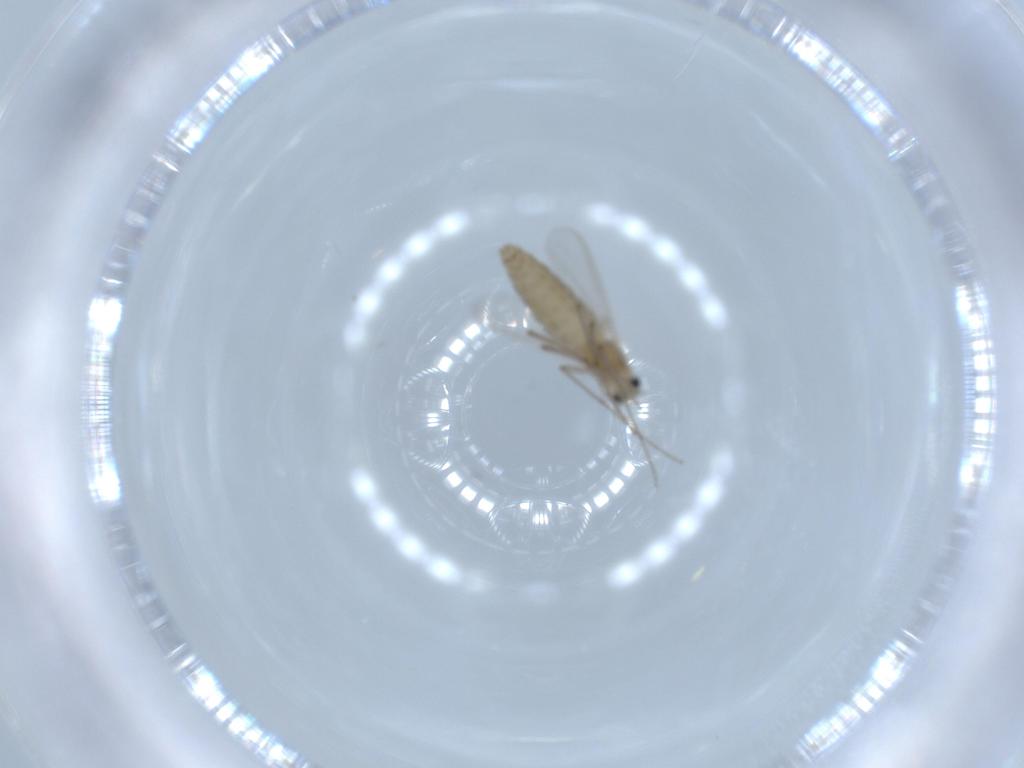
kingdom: Animalia
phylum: Arthropoda
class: Insecta
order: Diptera
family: Chironomidae
